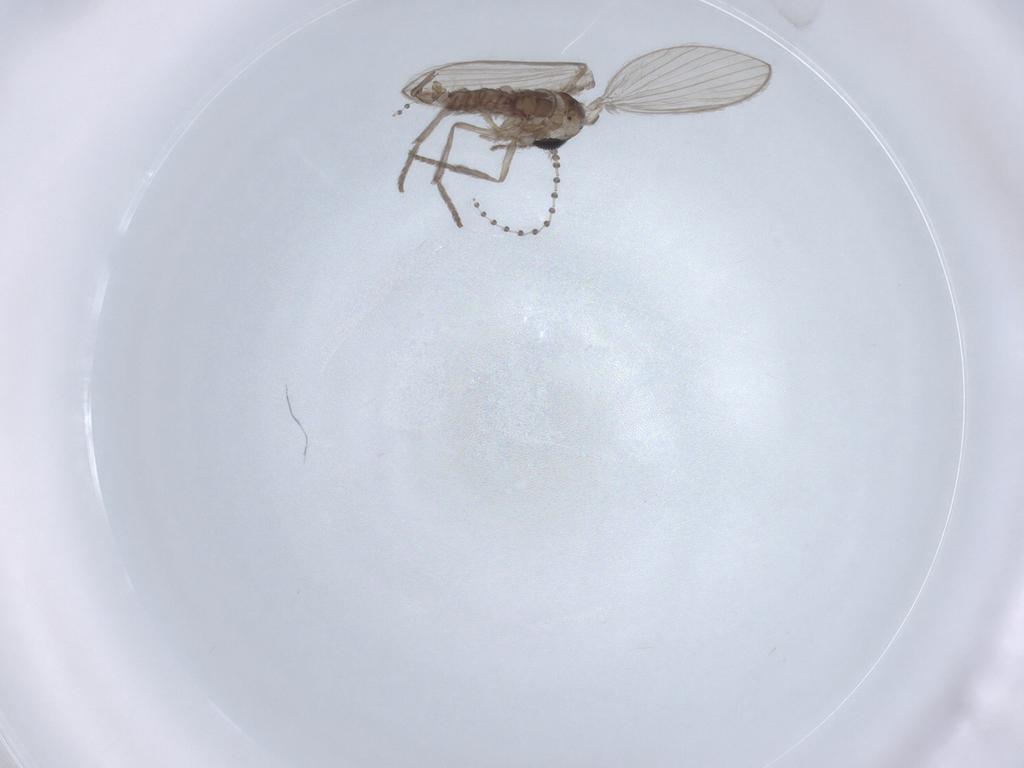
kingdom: Animalia
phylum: Arthropoda
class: Insecta
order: Diptera
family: Psychodidae
